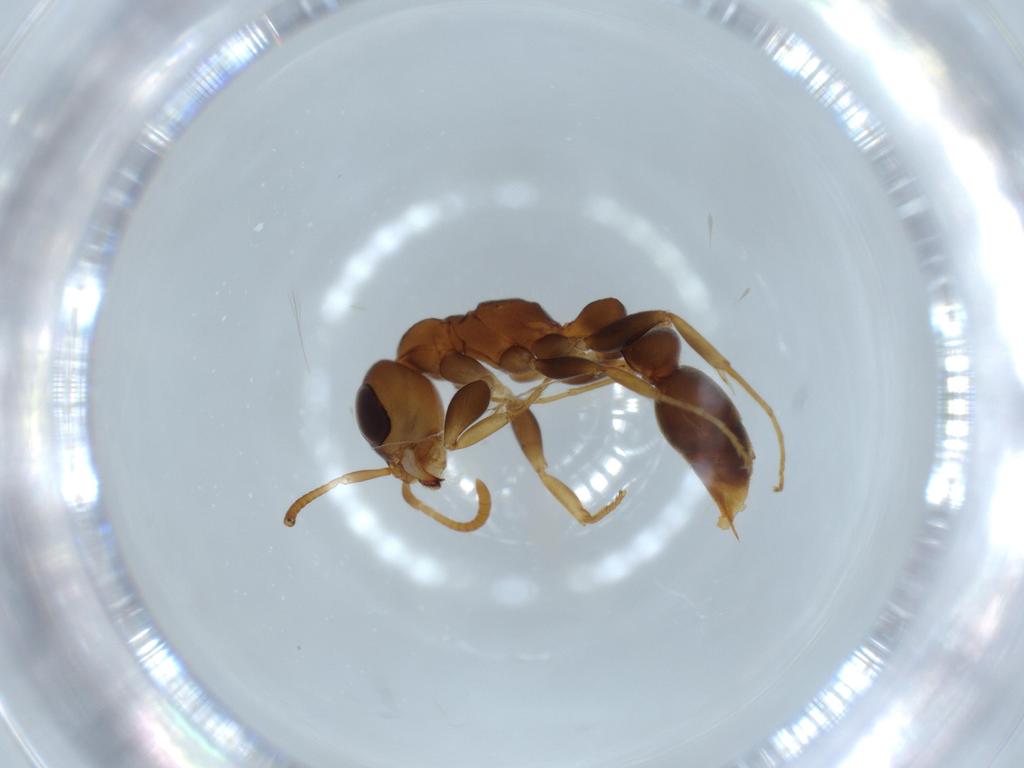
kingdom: Animalia
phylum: Arthropoda
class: Insecta
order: Hymenoptera
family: Formicidae
